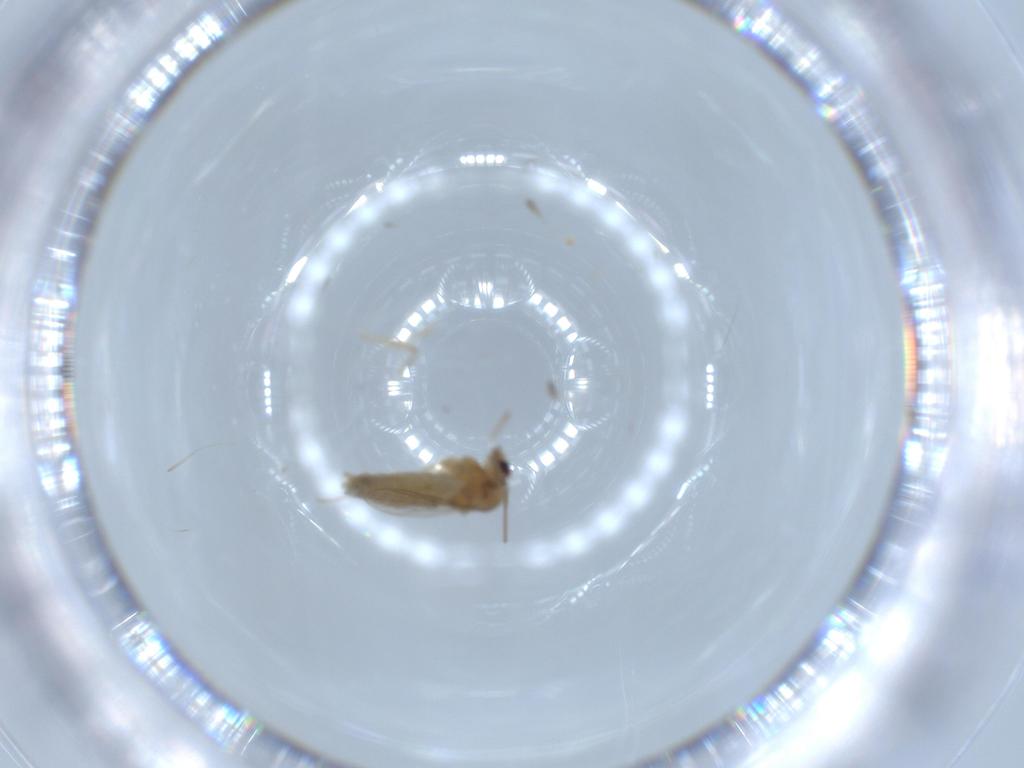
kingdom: Animalia
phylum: Arthropoda
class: Insecta
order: Diptera
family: Chironomidae
